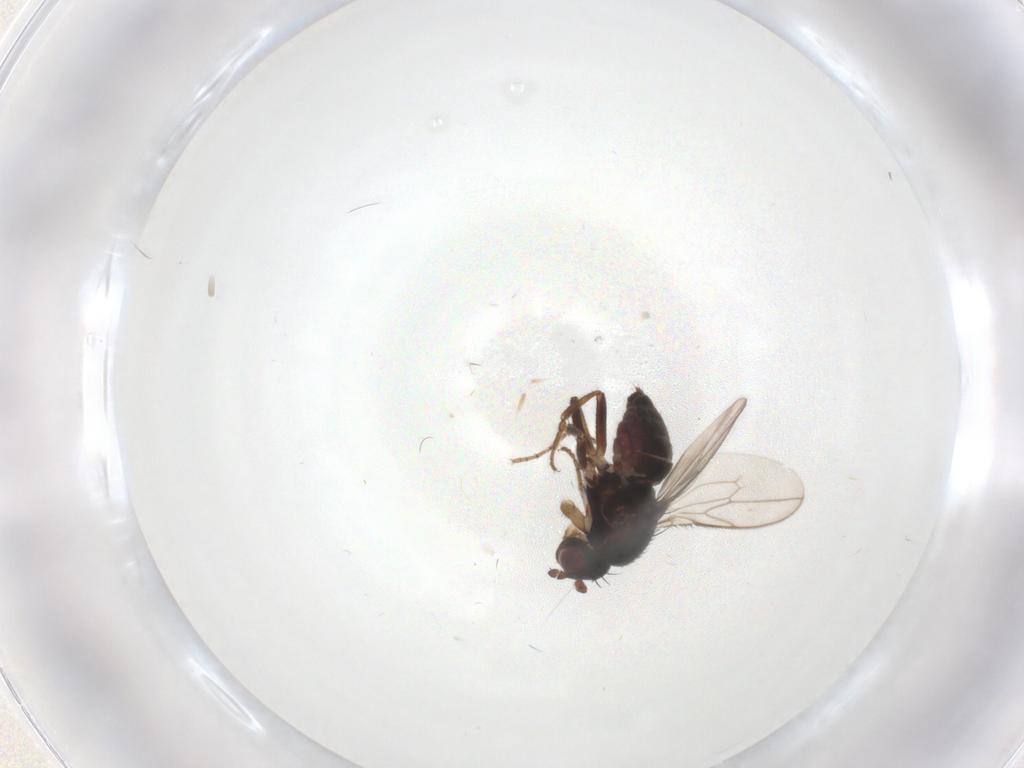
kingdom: Animalia
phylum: Arthropoda
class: Insecta
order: Diptera
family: Sphaeroceridae
